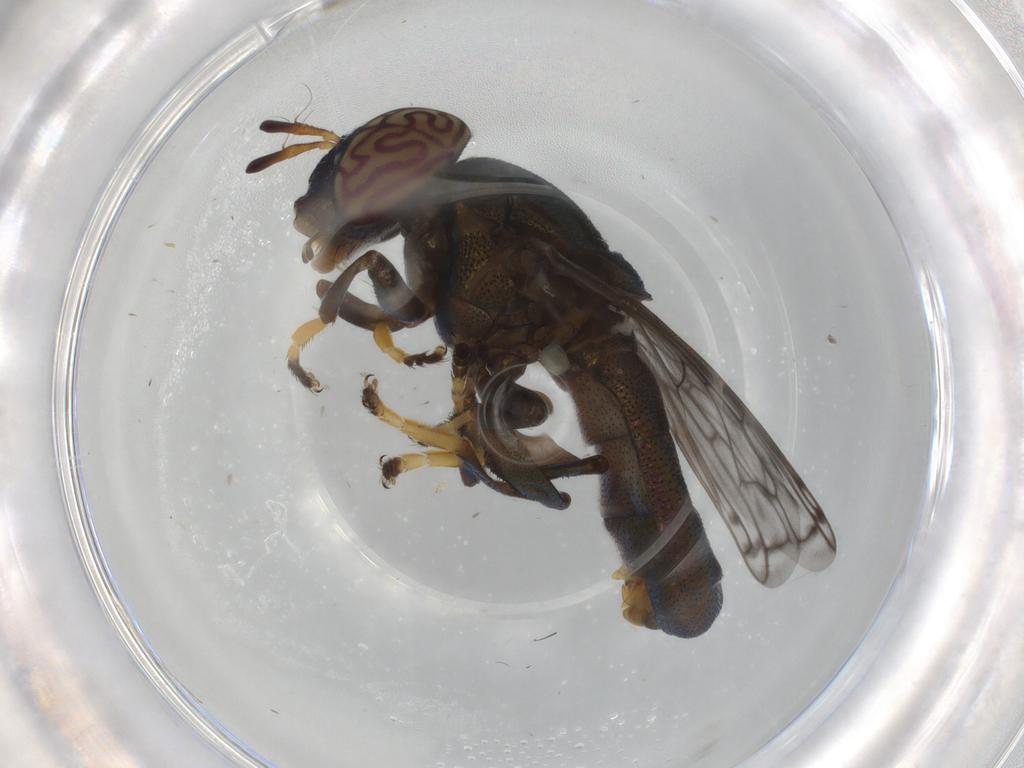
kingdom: Animalia
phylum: Arthropoda
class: Insecta
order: Diptera
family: Syrphidae
